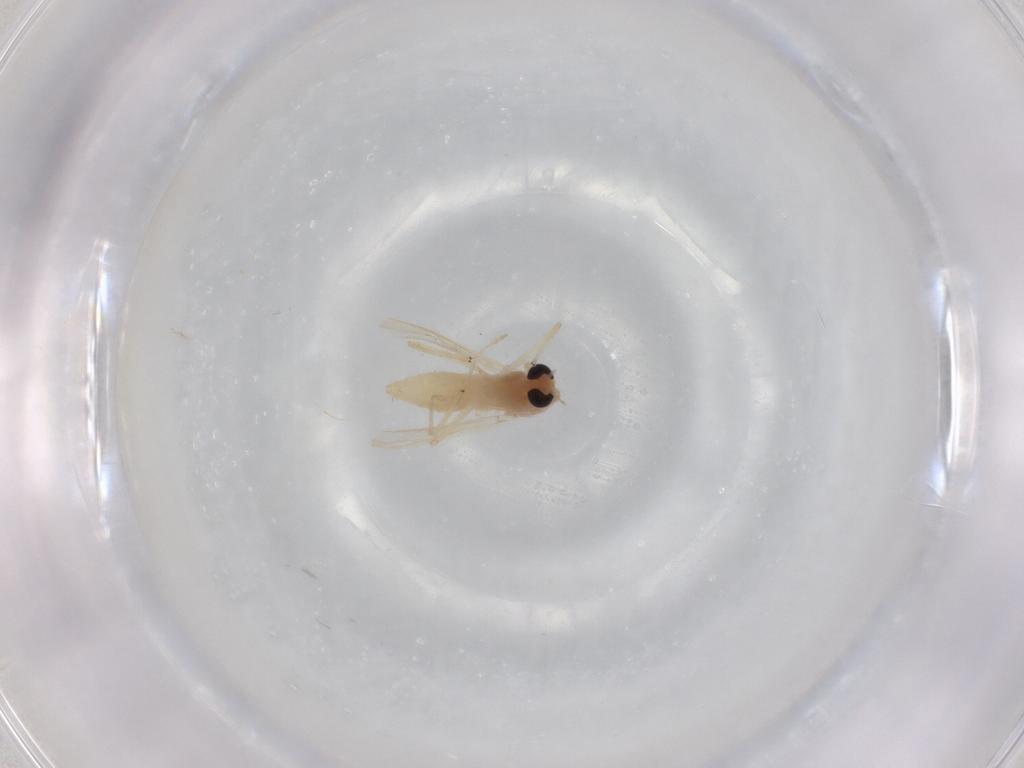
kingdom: Animalia
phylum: Arthropoda
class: Insecta
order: Diptera
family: Chironomidae
